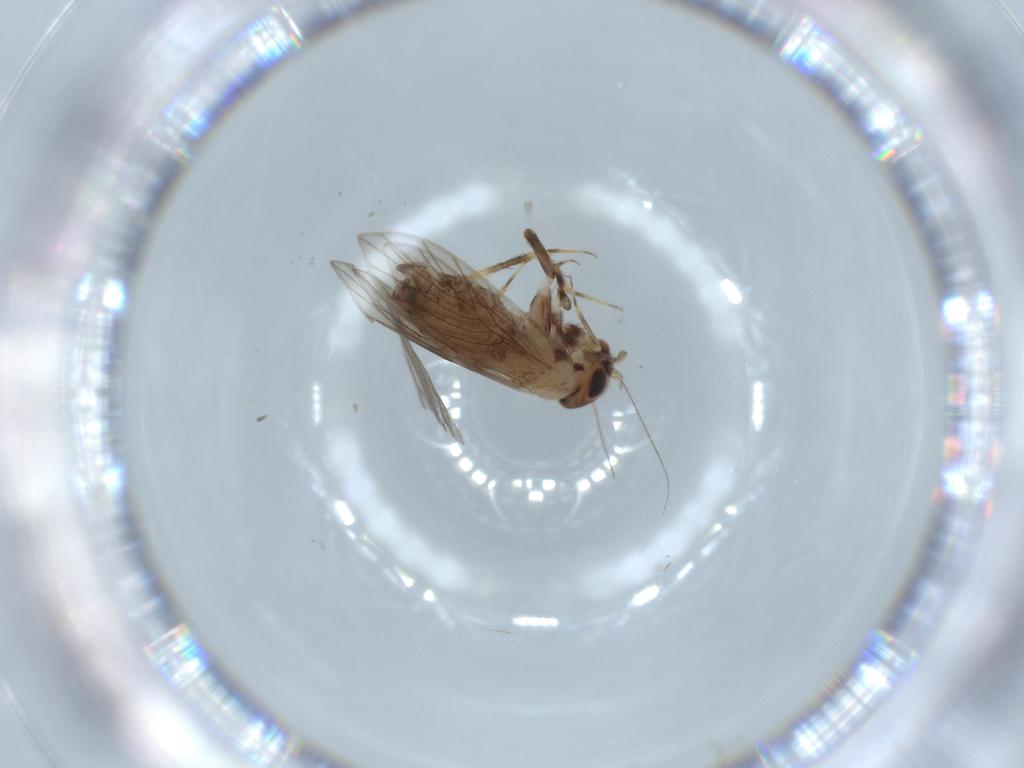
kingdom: Animalia
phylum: Arthropoda
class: Insecta
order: Psocodea
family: Lepidopsocidae
